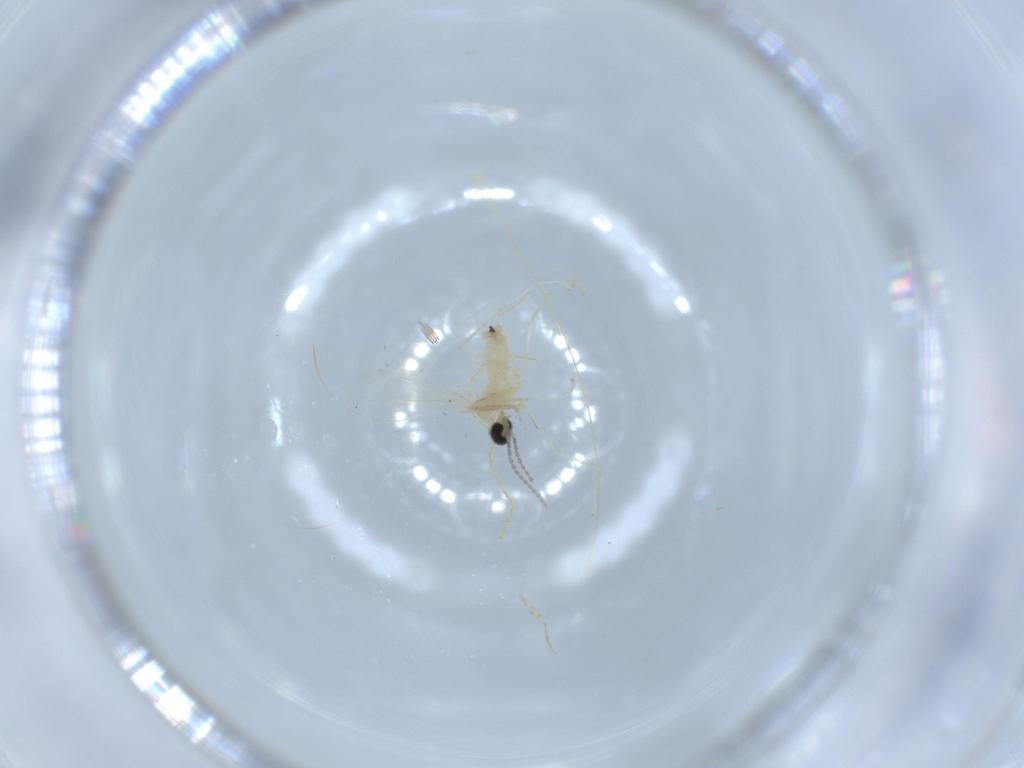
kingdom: Animalia
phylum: Arthropoda
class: Insecta
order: Diptera
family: Cecidomyiidae
